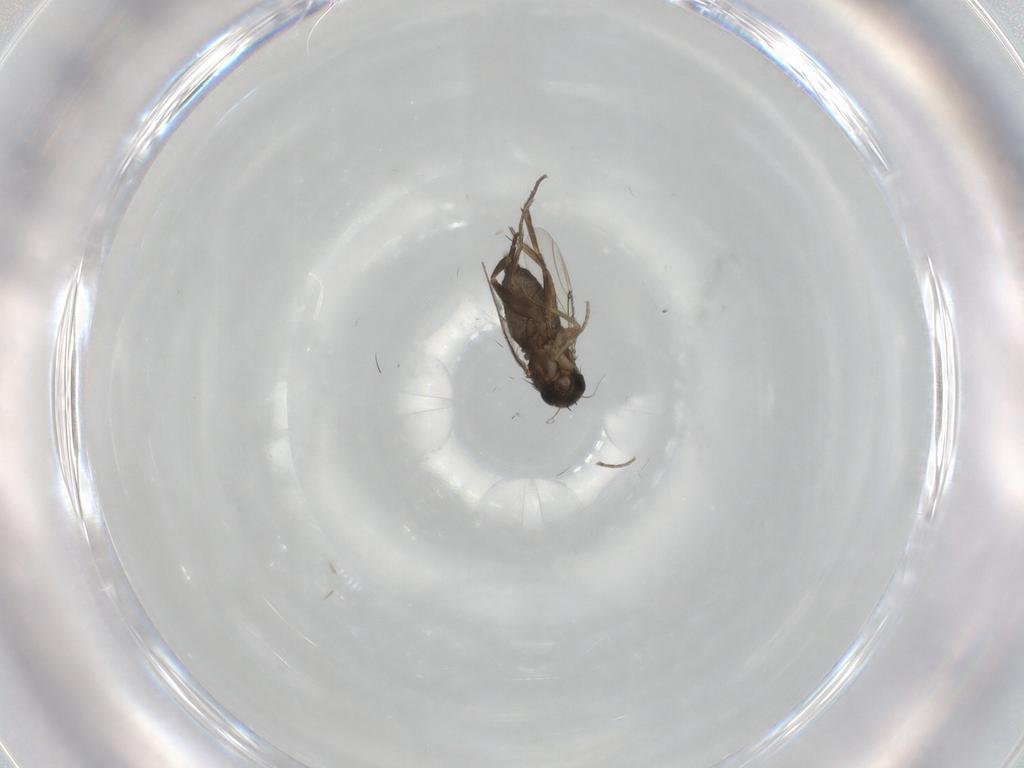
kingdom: Animalia
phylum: Arthropoda
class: Insecta
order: Diptera
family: Phoridae
